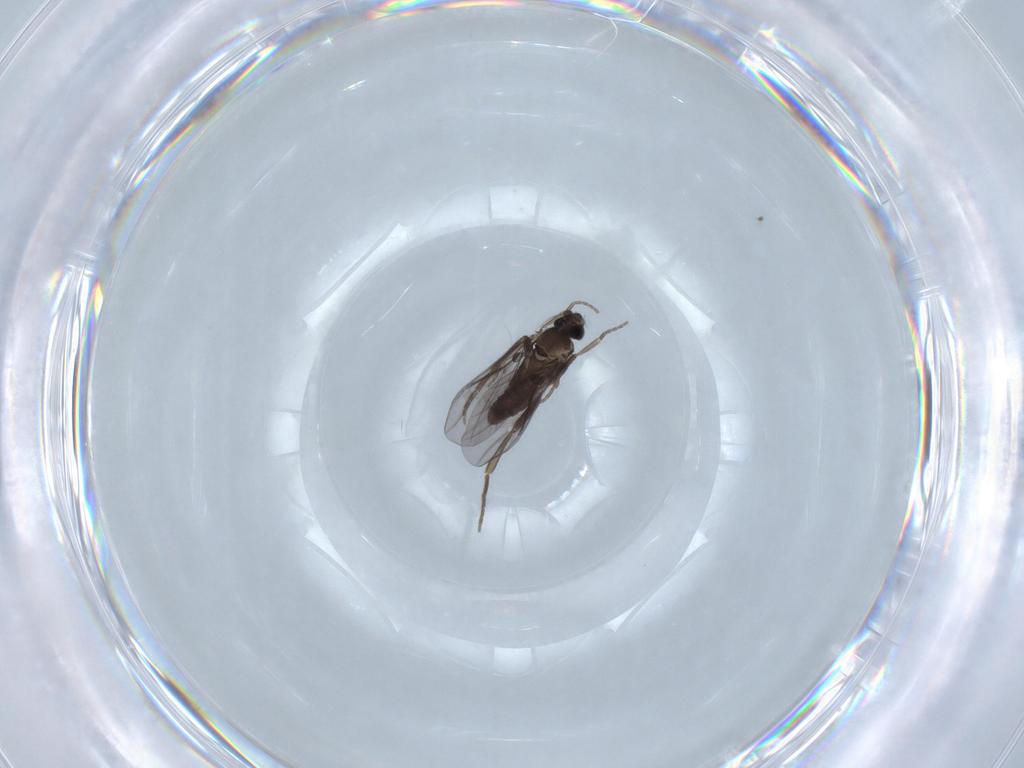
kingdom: Animalia
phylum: Arthropoda
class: Insecta
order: Diptera
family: Phoridae
